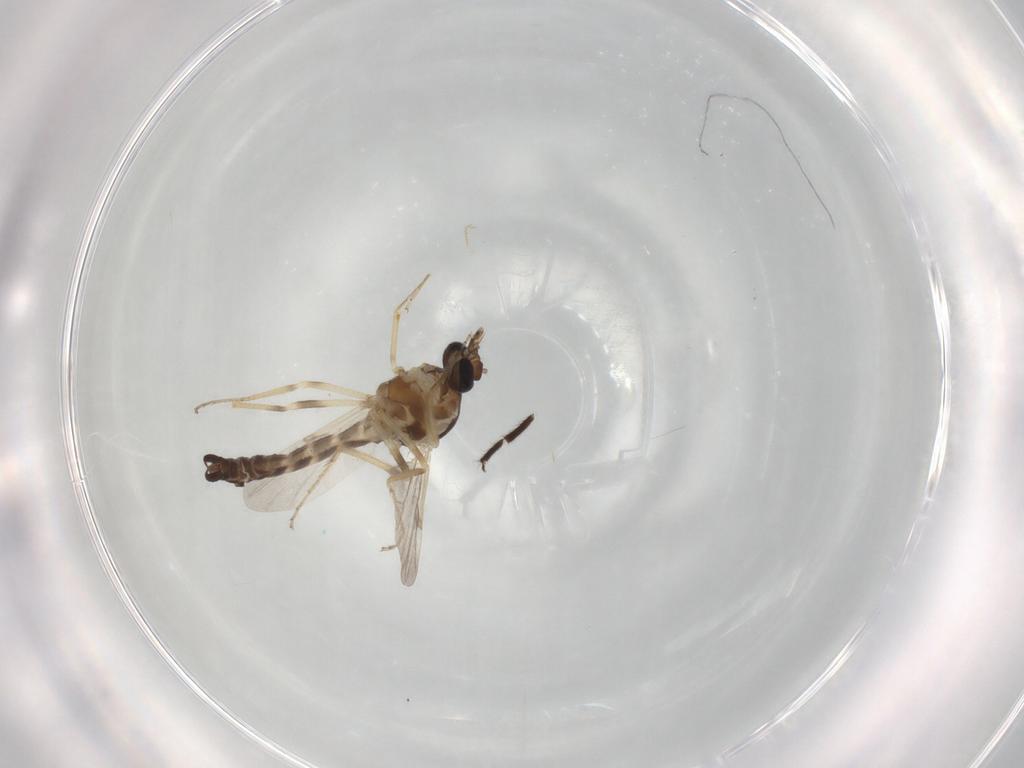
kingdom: Animalia
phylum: Arthropoda
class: Insecta
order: Diptera
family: Ceratopogonidae
